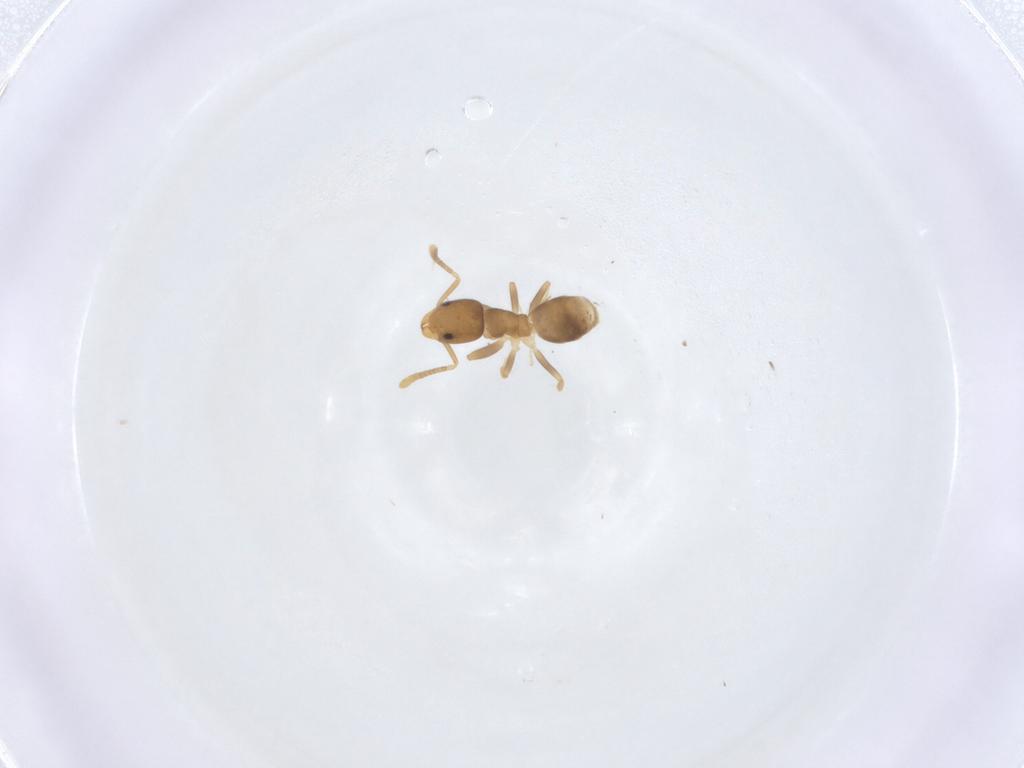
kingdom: Animalia
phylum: Arthropoda
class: Insecta
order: Hymenoptera
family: Formicidae
